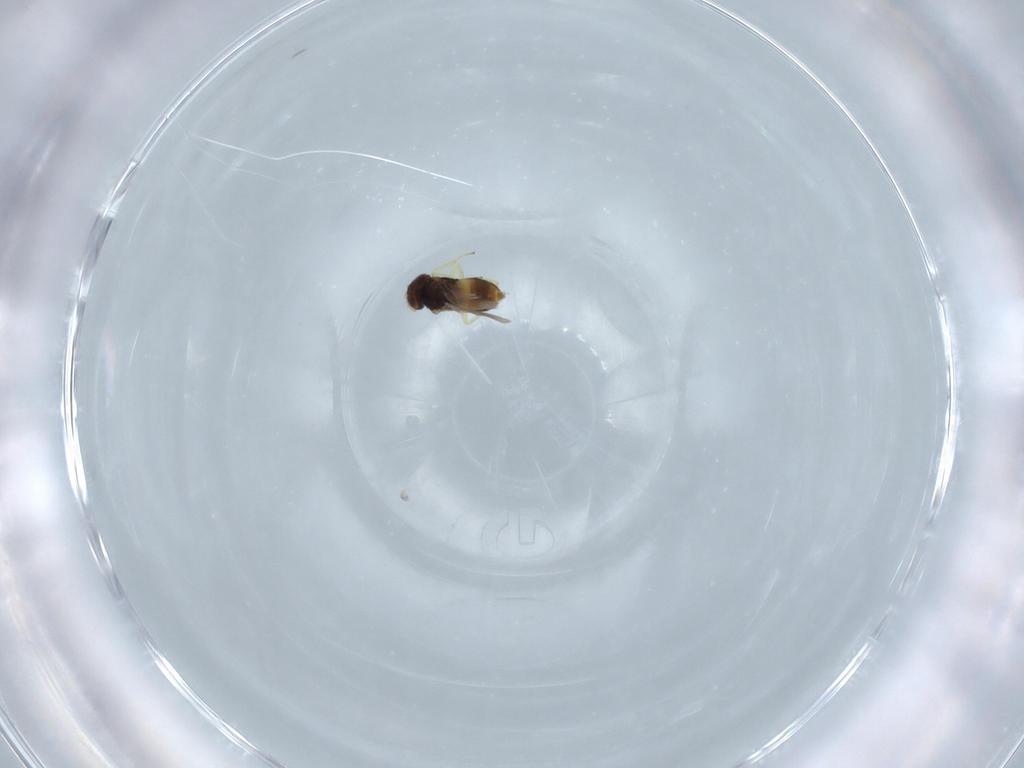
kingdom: Animalia
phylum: Arthropoda
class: Insecta
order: Hymenoptera
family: Aphelinidae
